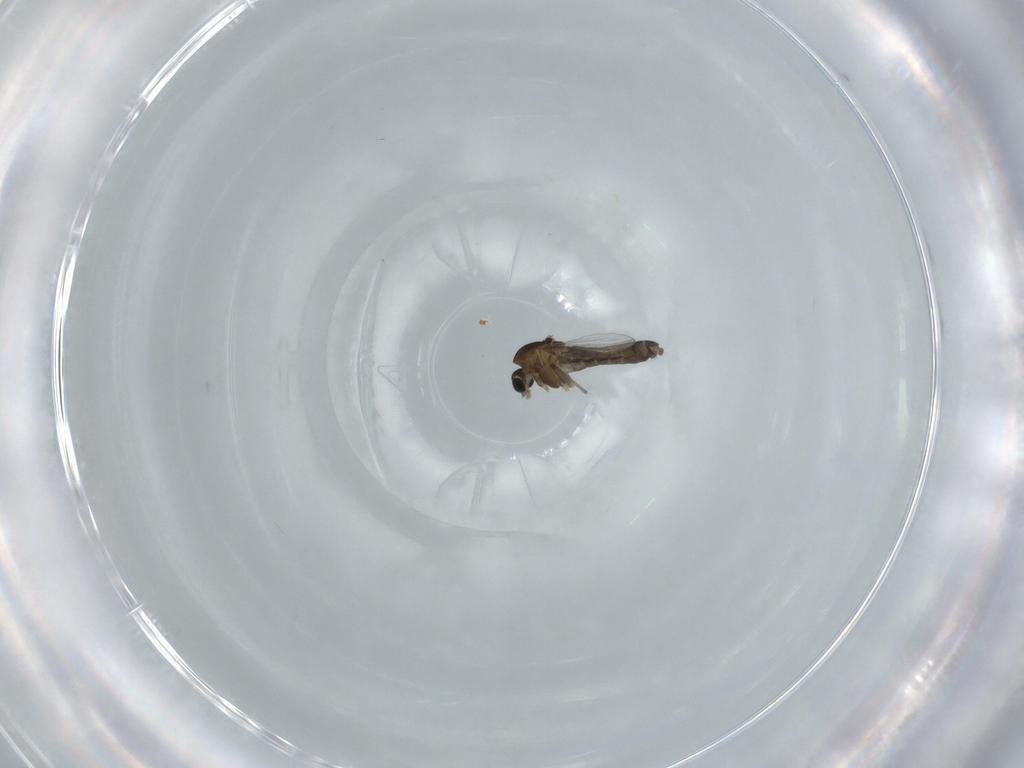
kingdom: Animalia
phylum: Arthropoda
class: Insecta
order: Diptera
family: Chironomidae
